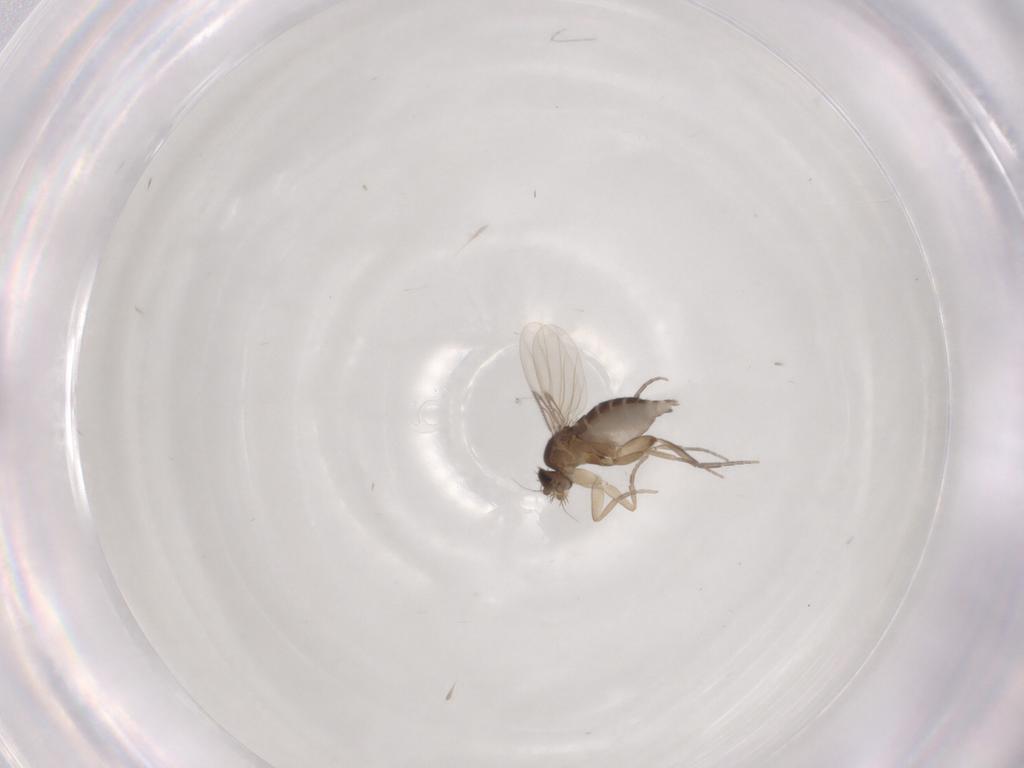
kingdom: Animalia
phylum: Arthropoda
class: Insecta
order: Diptera
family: Phoridae
